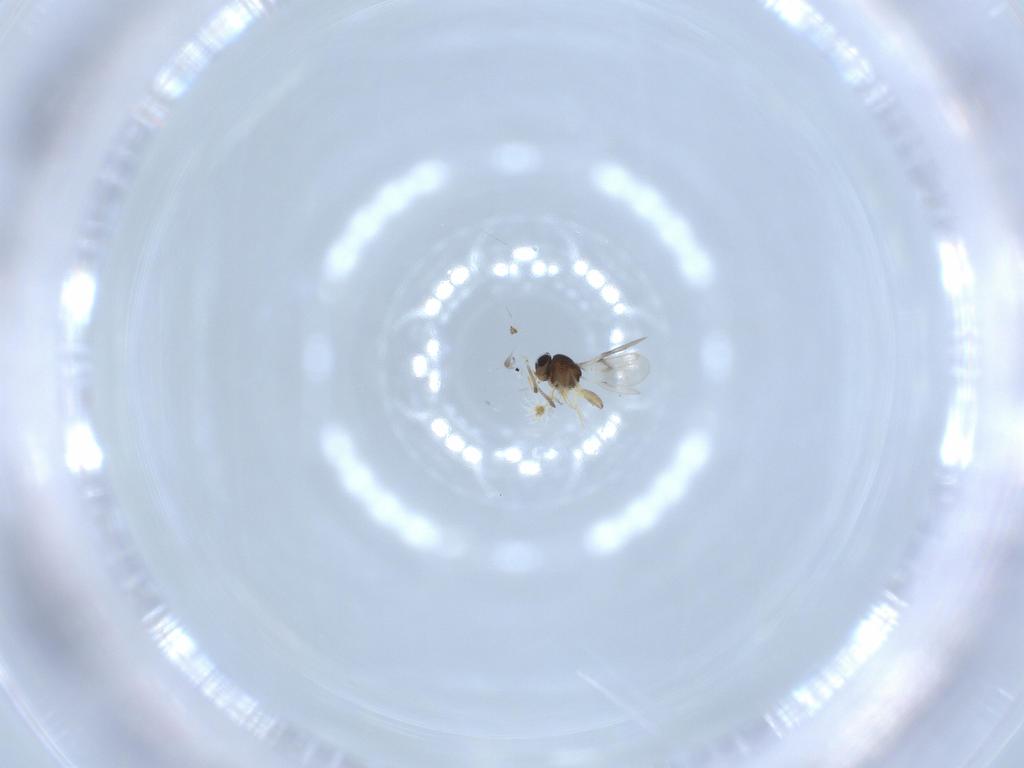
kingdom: Animalia
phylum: Arthropoda
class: Insecta
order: Hymenoptera
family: Scelionidae
